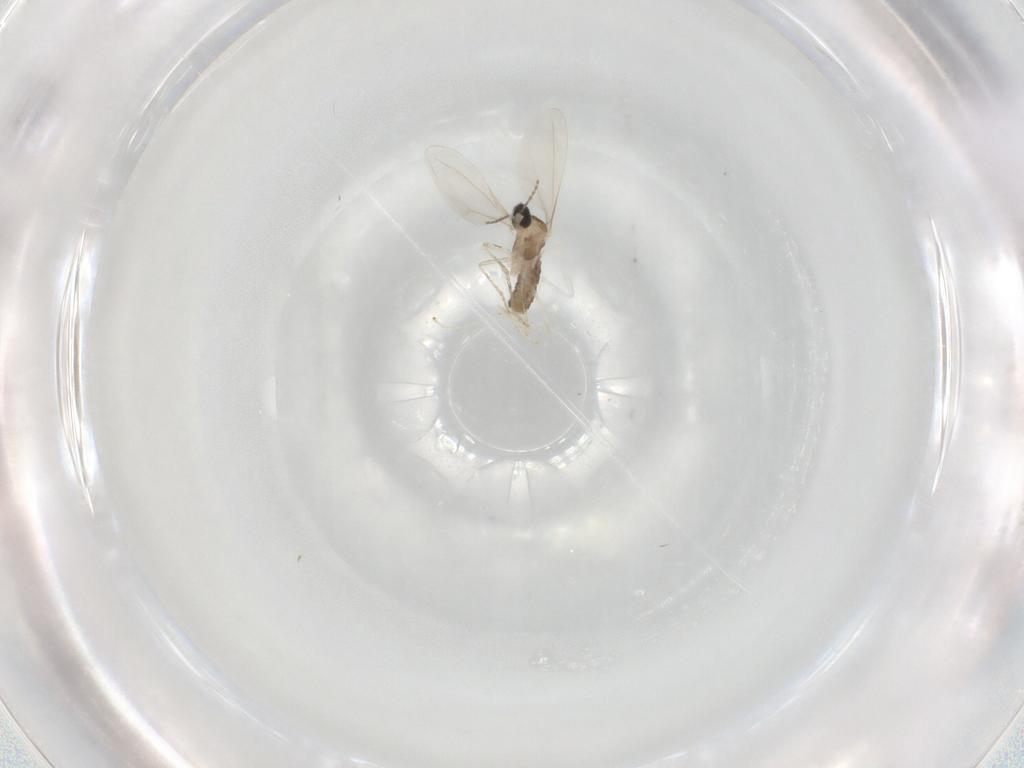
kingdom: Animalia
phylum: Arthropoda
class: Insecta
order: Diptera
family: Cecidomyiidae
